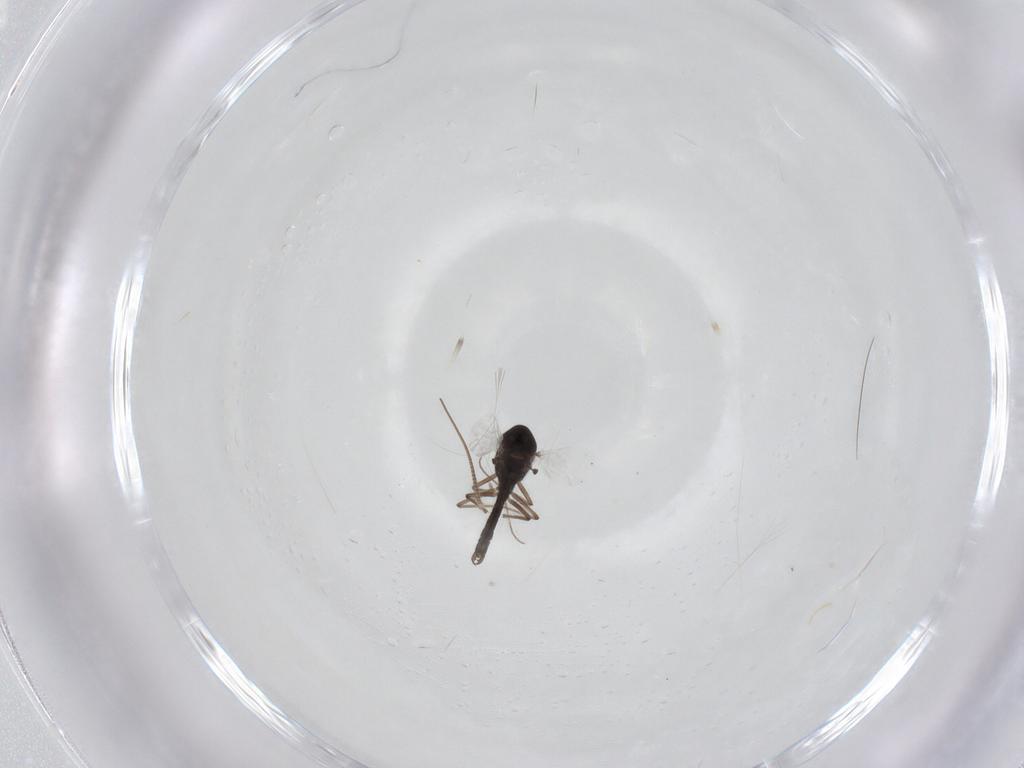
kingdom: Animalia
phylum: Arthropoda
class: Insecta
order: Diptera
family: Chironomidae
